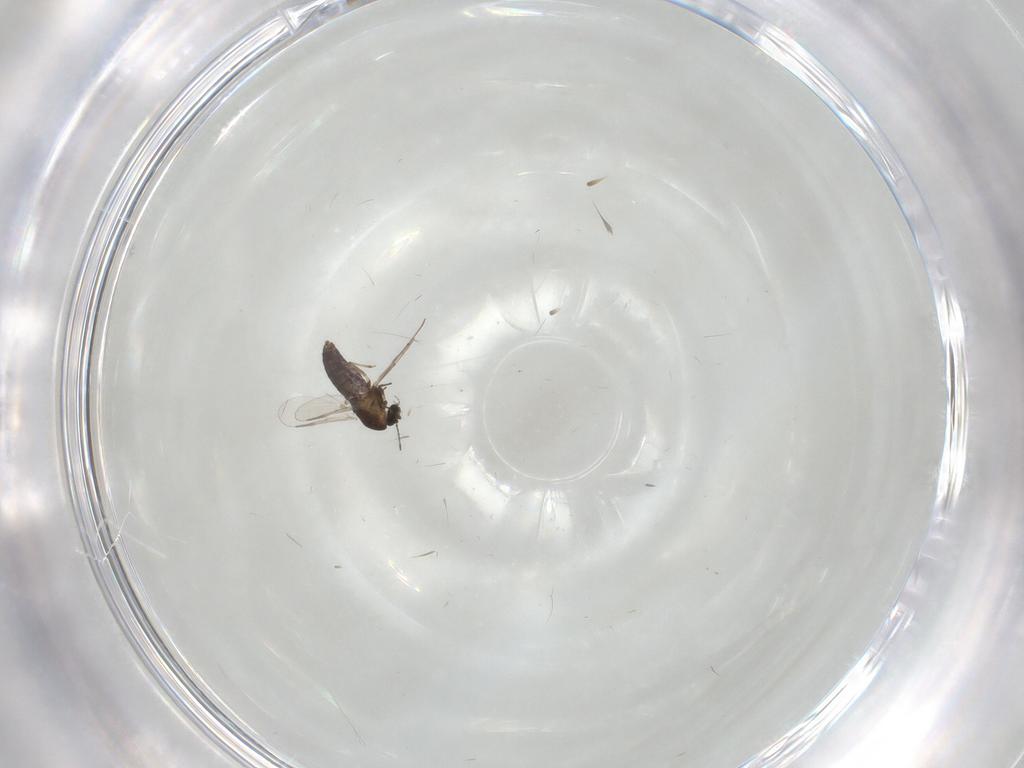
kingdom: Animalia
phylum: Arthropoda
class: Insecta
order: Diptera
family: Chironomidae
